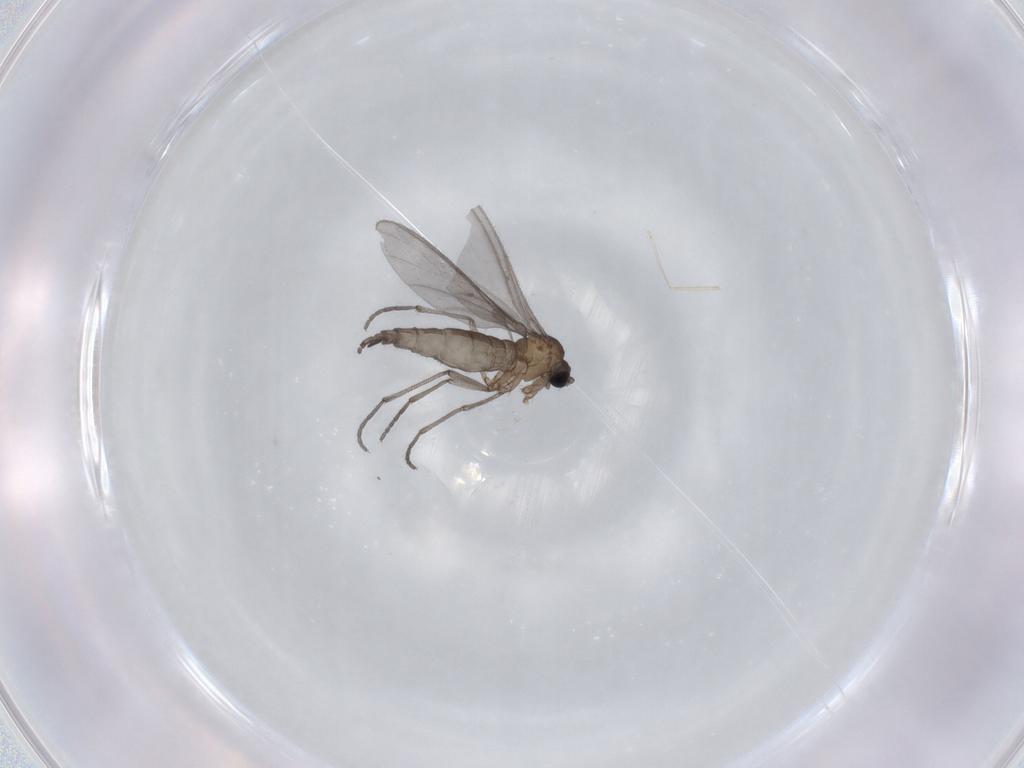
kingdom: Animalia
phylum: Arthropoda
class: Insecta
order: Diptera
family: Sciaridae
